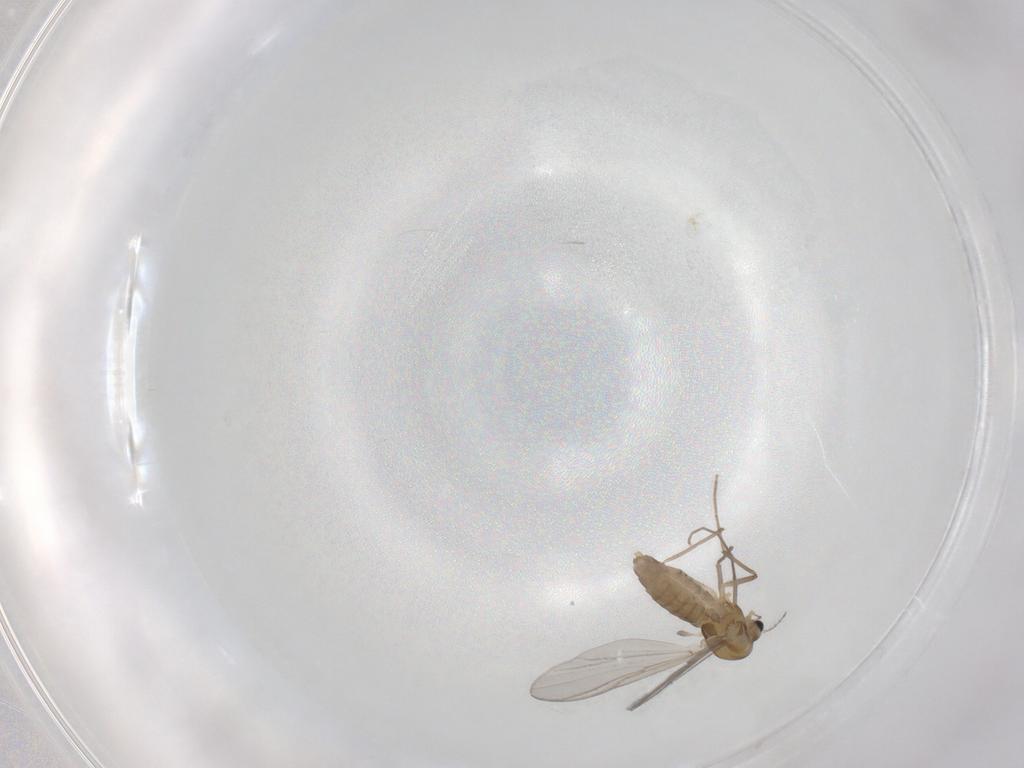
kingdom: Animalia
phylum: Arthropoda
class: Insecta
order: Diptera
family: Chironomidae
